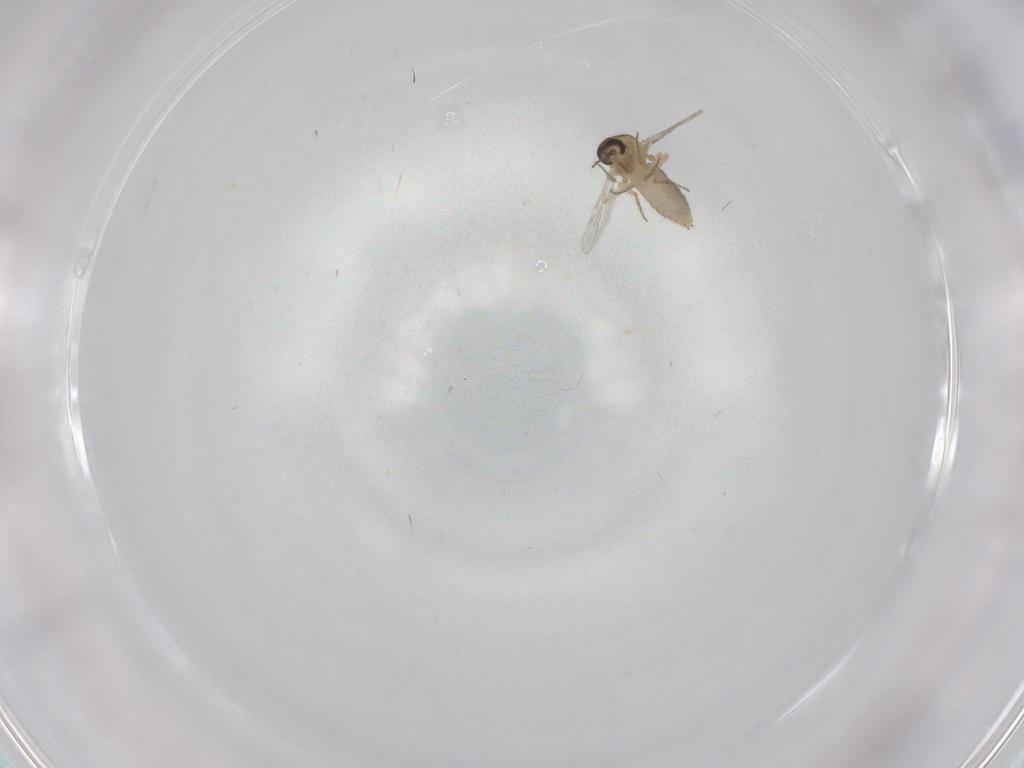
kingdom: Animalia
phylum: Arthropoda
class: Insecta
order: Diptera
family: Ceratopogonidae
